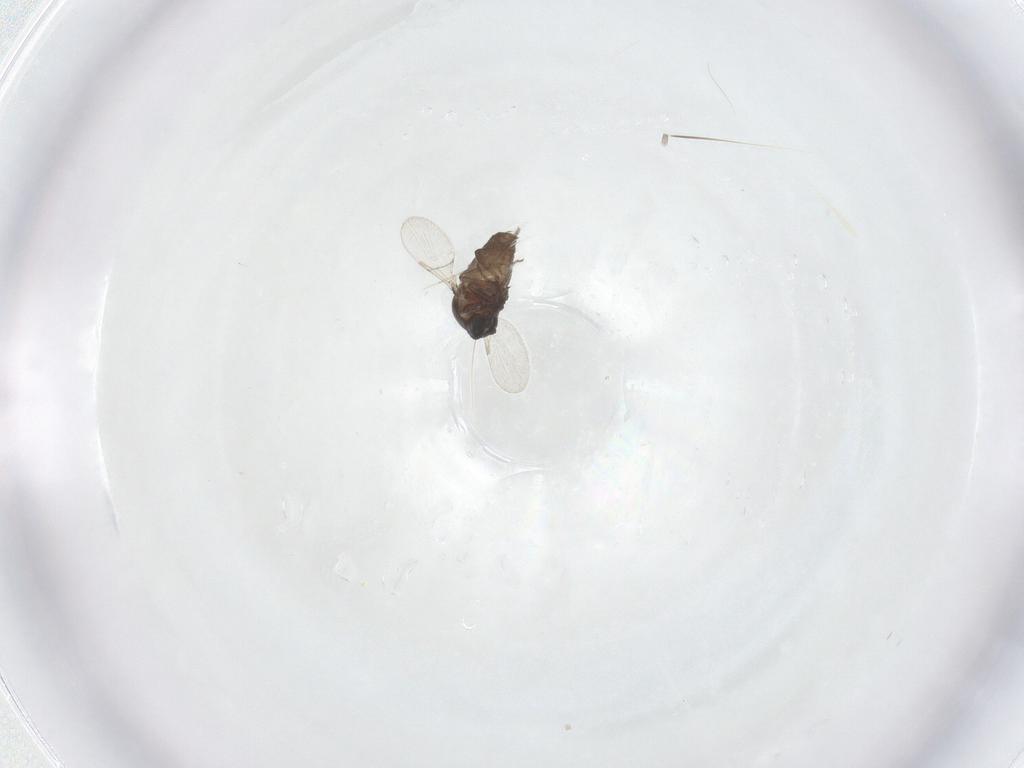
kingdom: Animalia
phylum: Arthropoda
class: Insecta
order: Diptera
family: Ceratopogonidae
